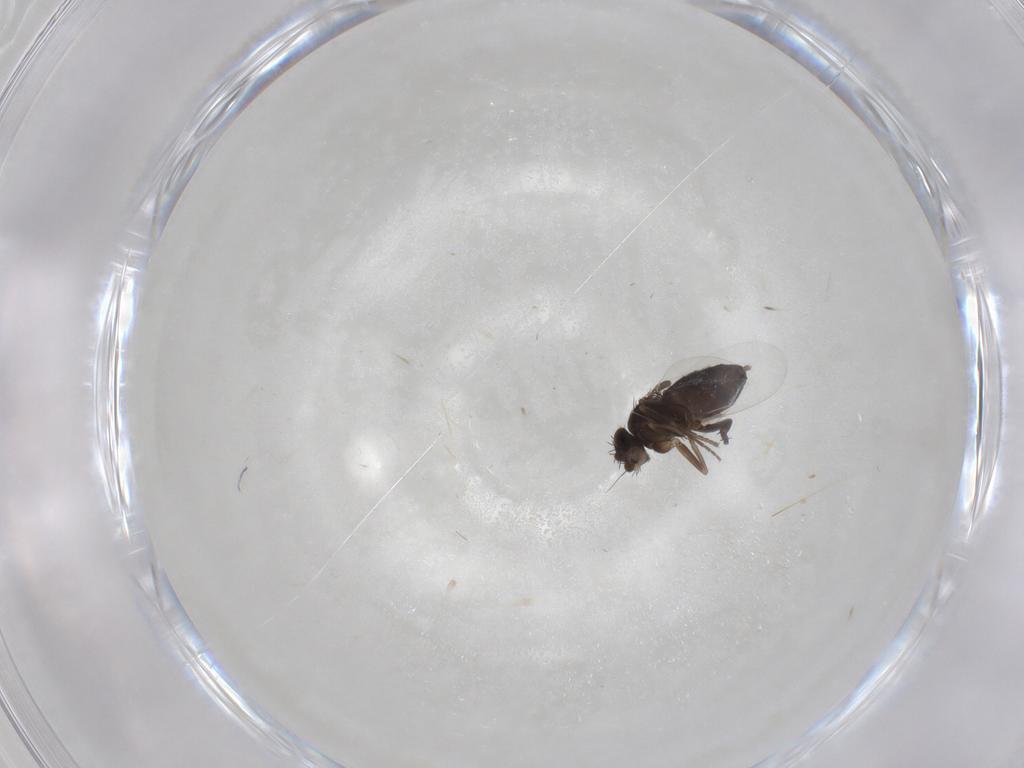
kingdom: Animalia
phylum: Arthropoda
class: Insecta
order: Diptera
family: Phoridae
